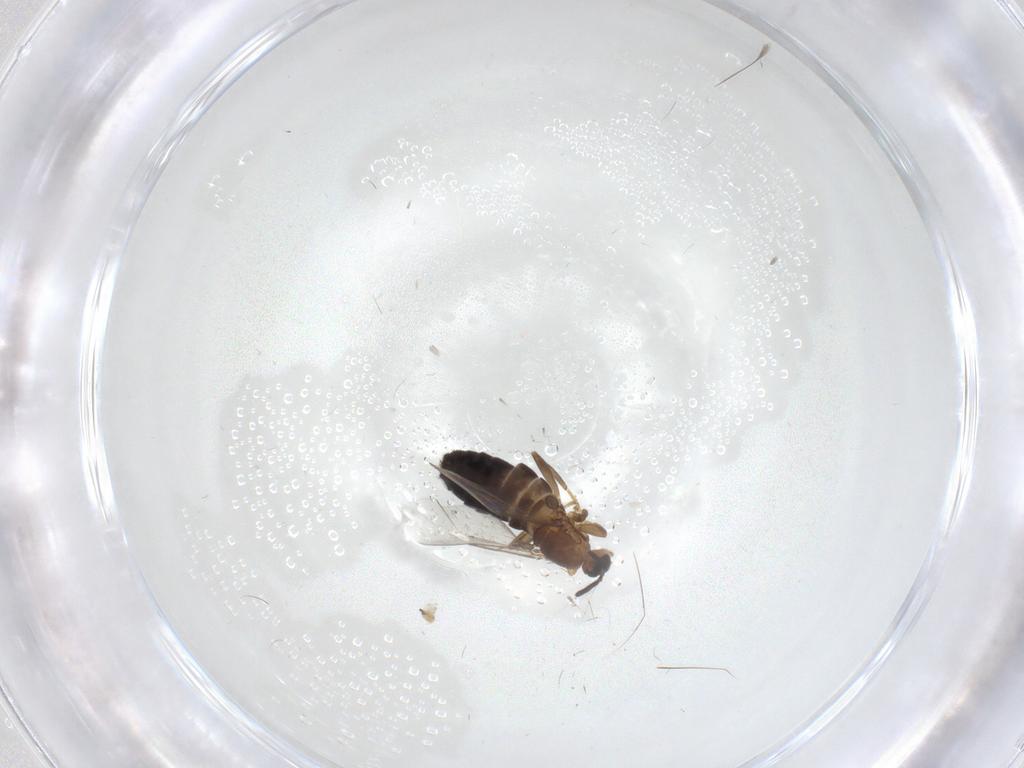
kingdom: Animalia
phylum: Arthropoda
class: Insecta
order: Diptera
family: Chironomidae
